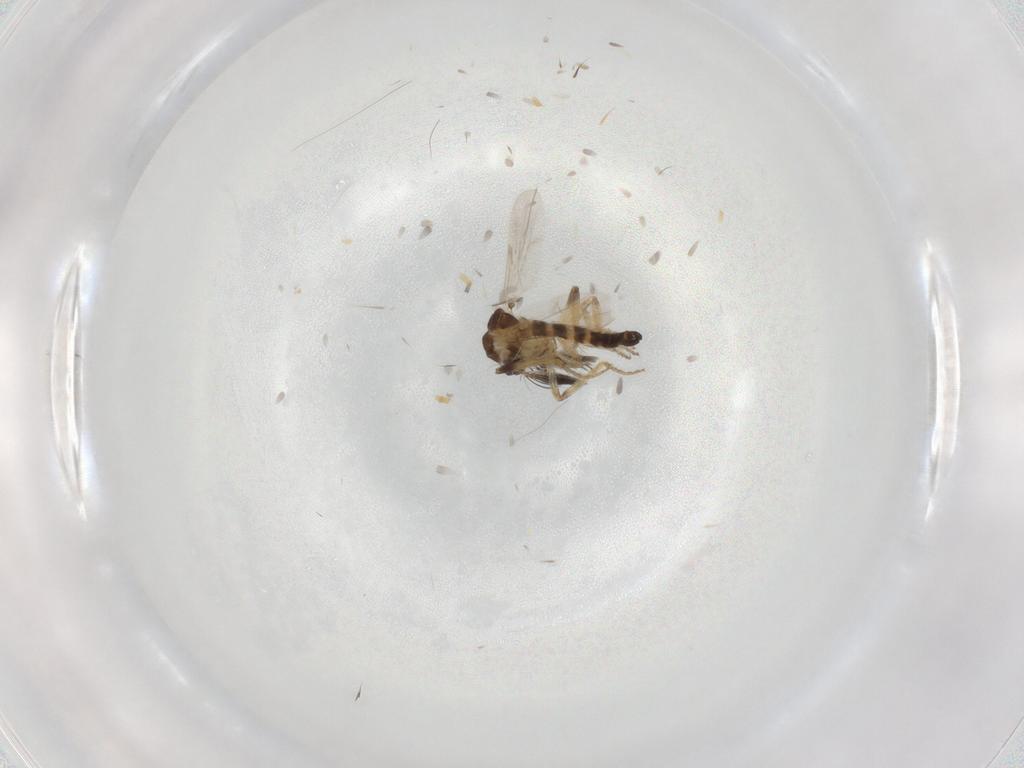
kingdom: Animalia
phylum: Arthropoda
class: Insecta
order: Diptera
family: Ceratopogonidae
